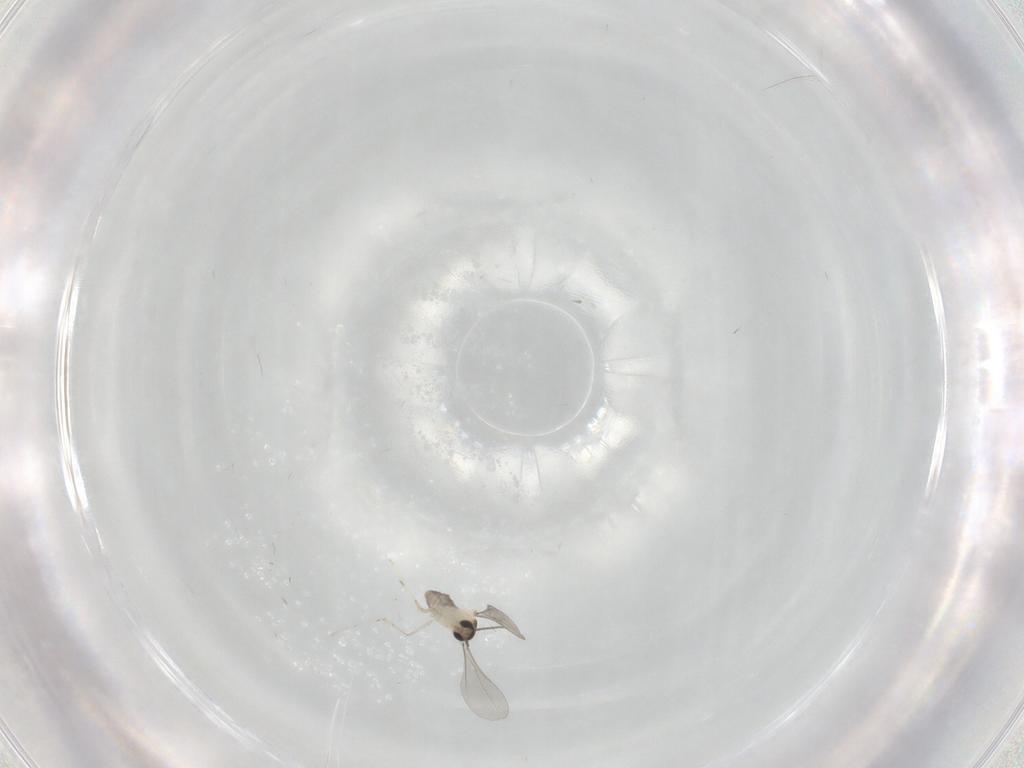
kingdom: Animalia
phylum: Arthropoda
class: Insecta
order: Diptera
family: Cecidomyiidae
